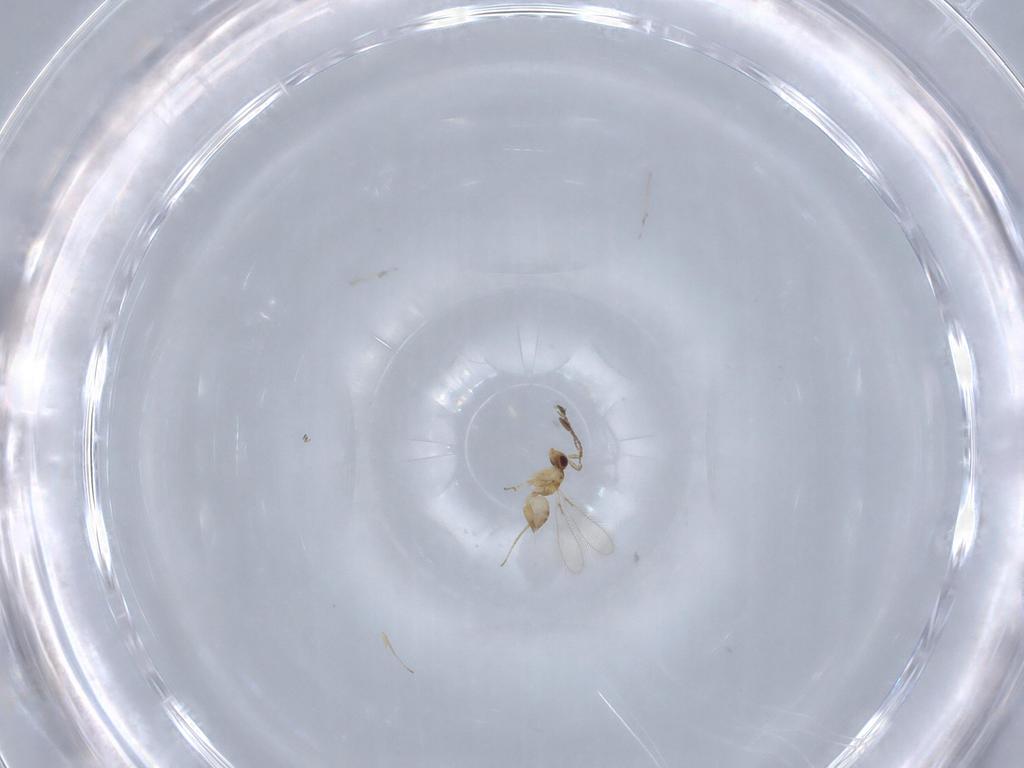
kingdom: Animalia
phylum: Arthropoda
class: Insecta
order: Hymenoptera
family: Mymaridae
